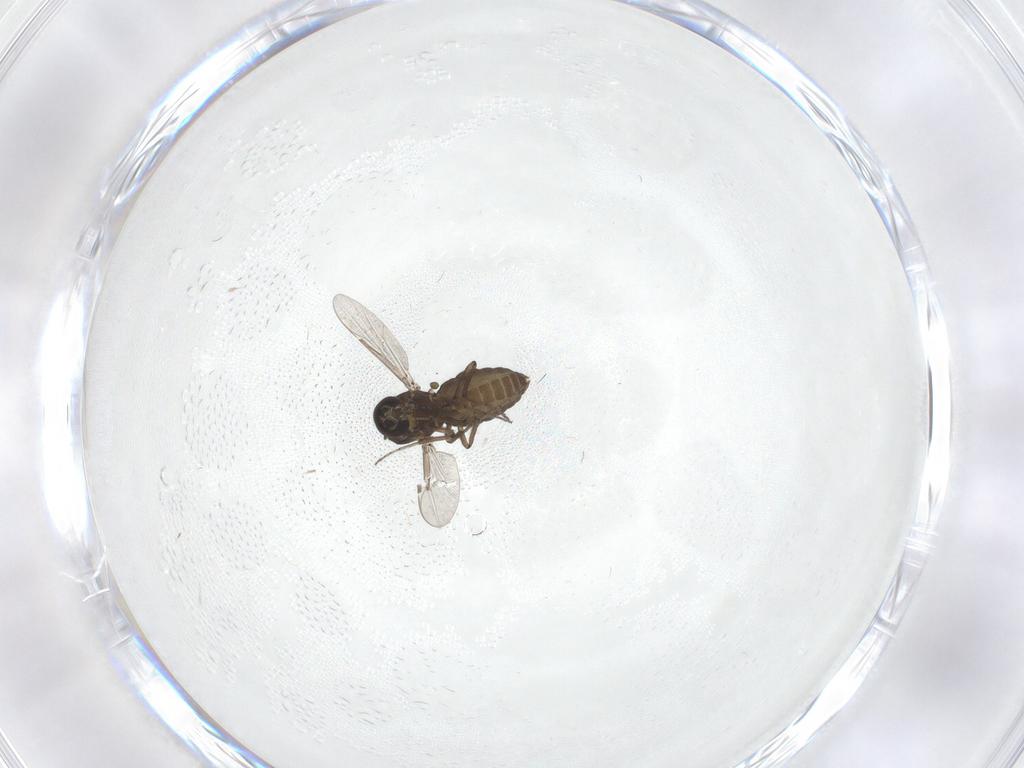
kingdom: Animalia
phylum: Arthropoda
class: Insecta
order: Diptera
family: Ceratopogonidae
